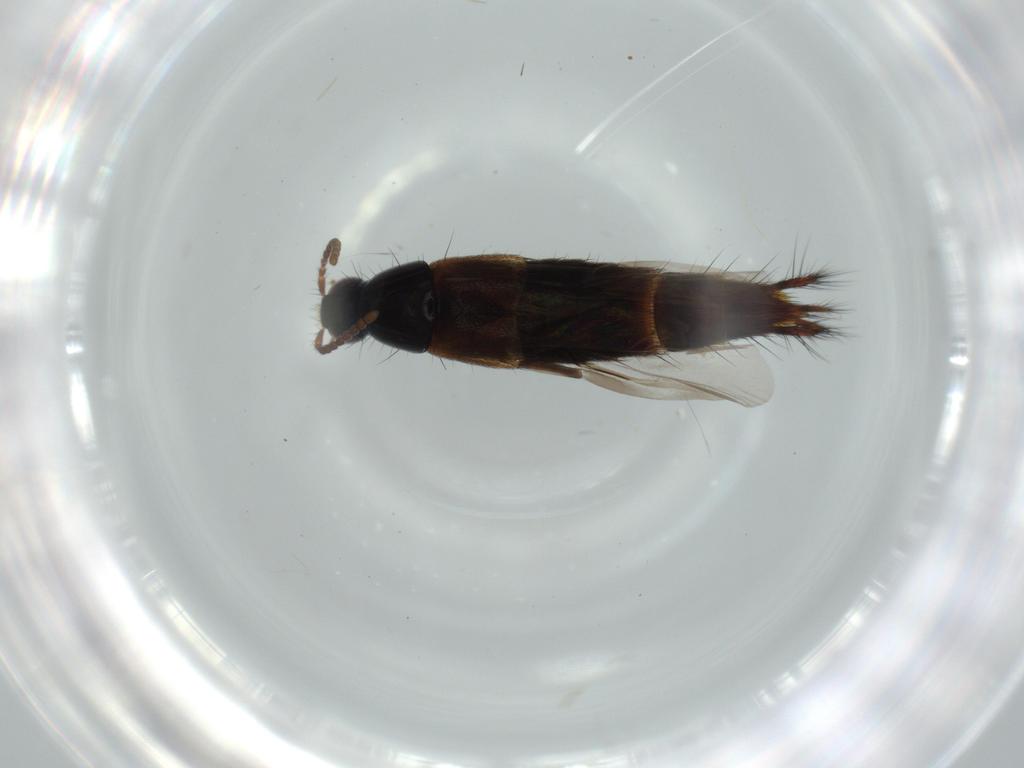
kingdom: Animalia
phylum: Arthropoda
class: Insecta
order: Coleoptera
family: Staphylinidae
